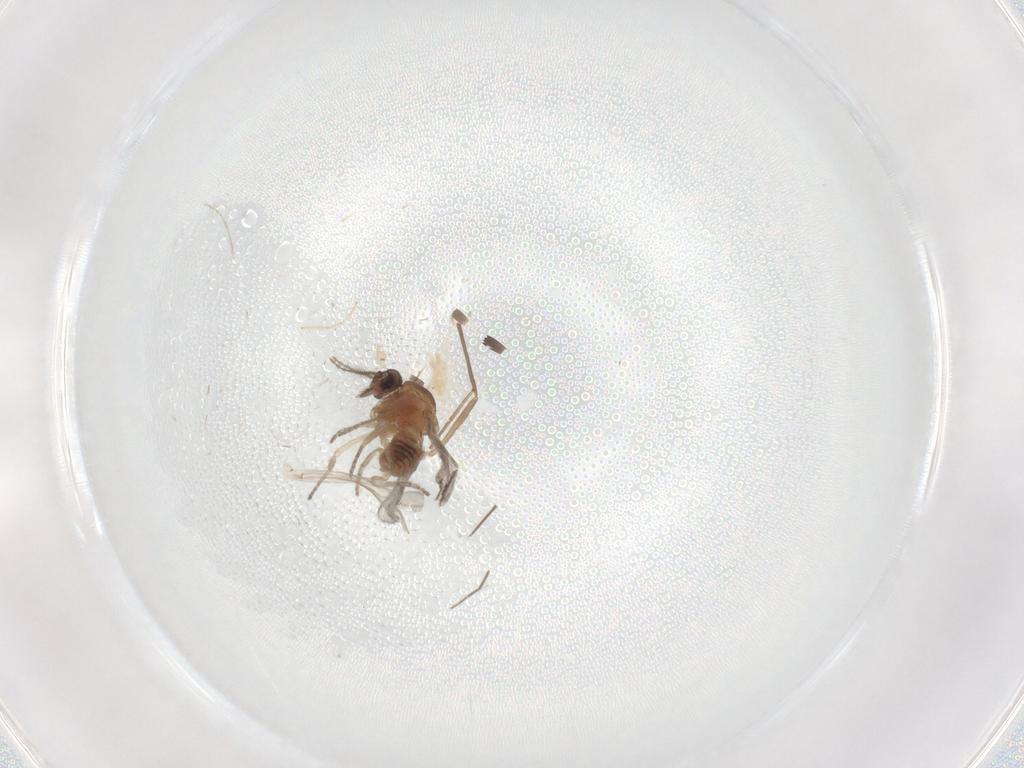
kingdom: Animalia
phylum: Arthropoda
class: Insecta
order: Diptera
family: Ceratopogonidae
